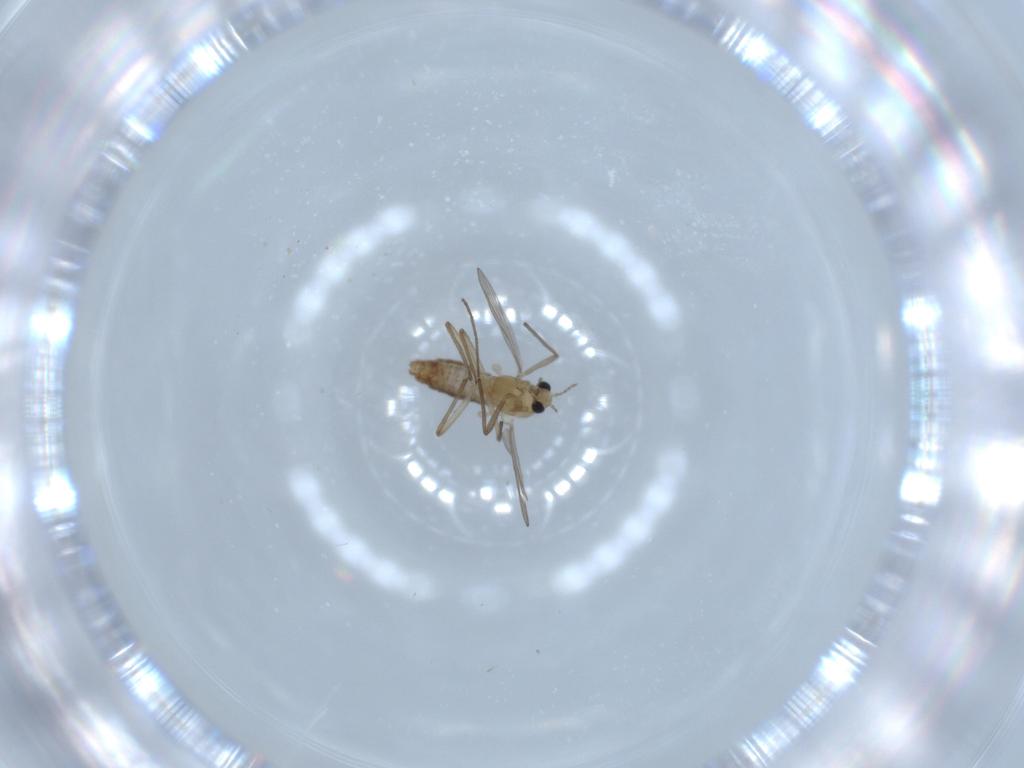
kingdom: Animalia
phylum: Arthropoda
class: Insecta
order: Diptera
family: Chironomidae
